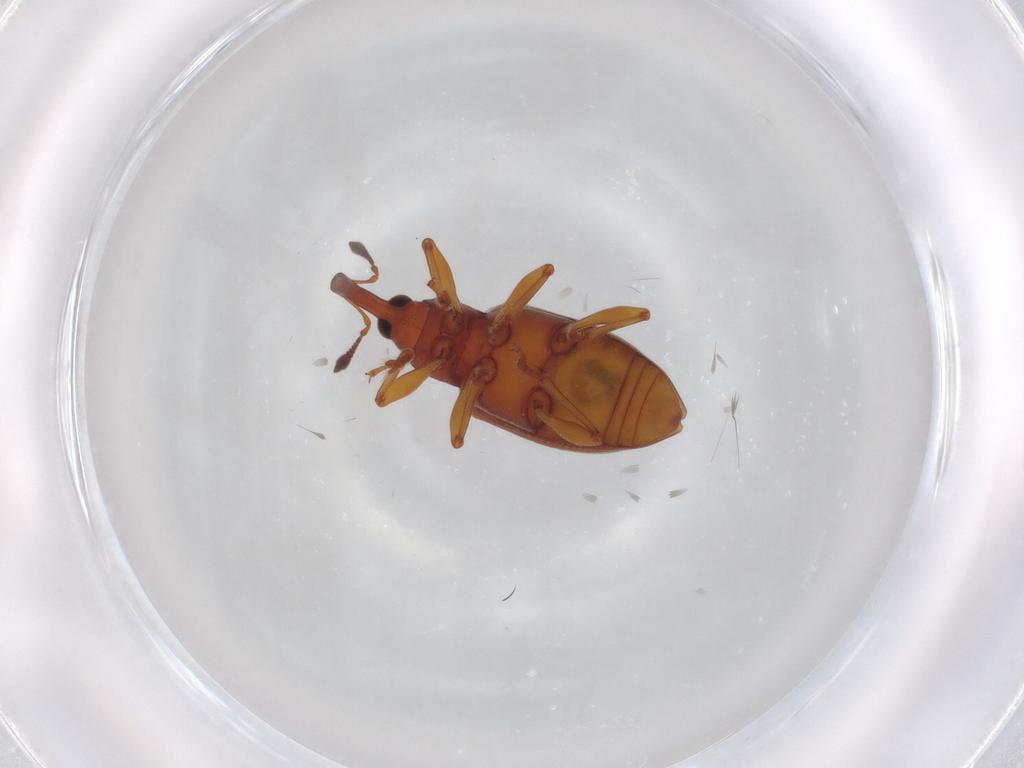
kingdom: Animalia
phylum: Arthropoda
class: Insecta
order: Coleoptera
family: Curculionidae
